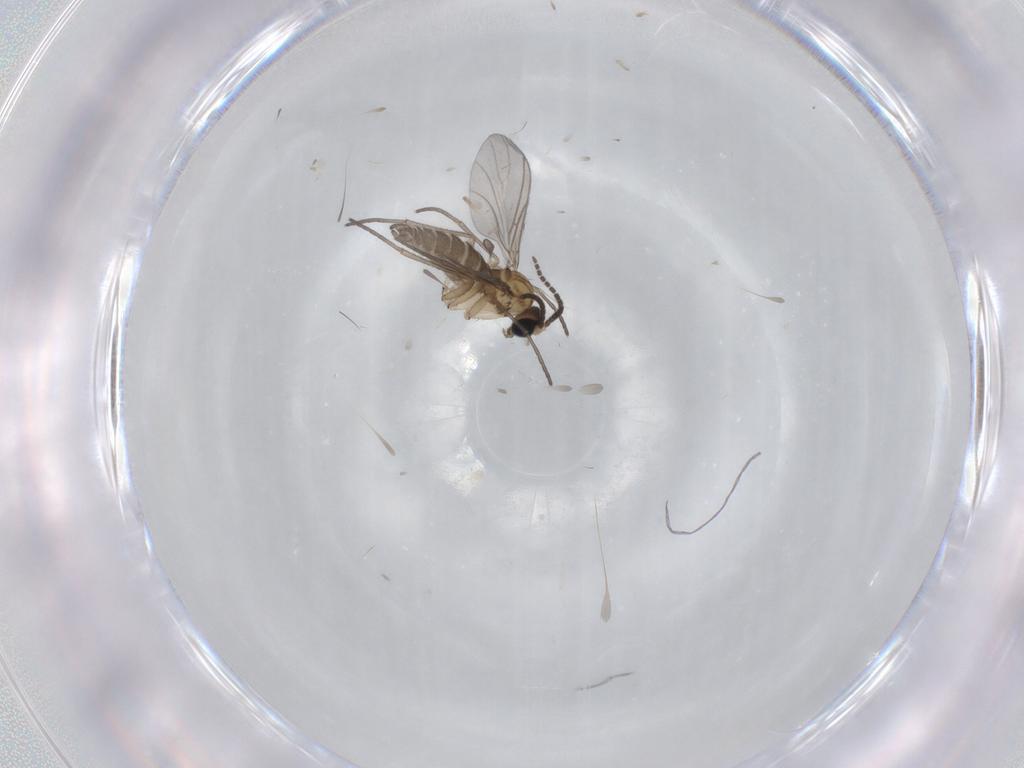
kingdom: Animalia
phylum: Arthropoda
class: Insecta
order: Diptera
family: Sciaridae
